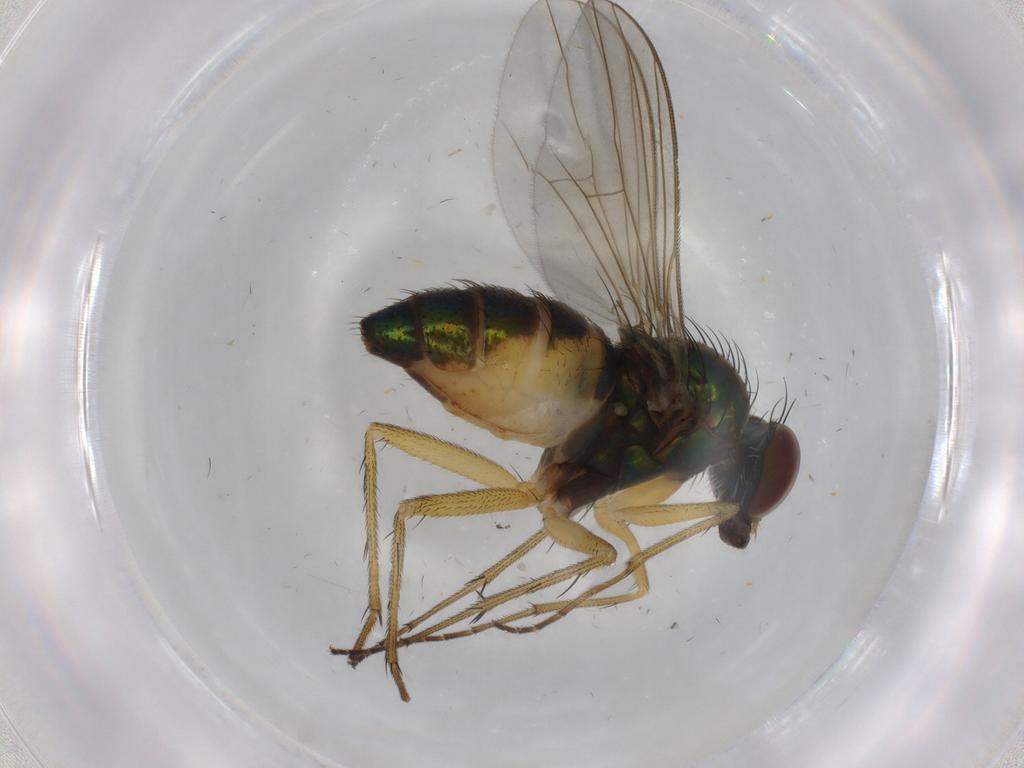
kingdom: Animalia
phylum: Arthropoda
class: Insecta
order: Diptera
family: Dolichopodidae
